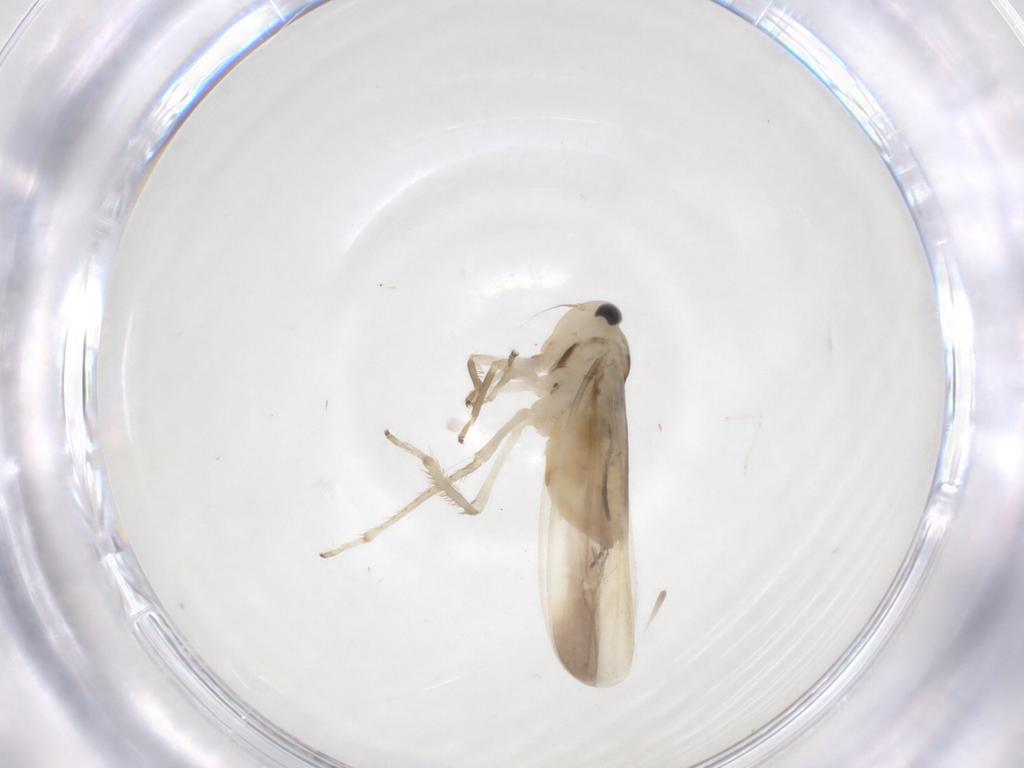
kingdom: Animalia
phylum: Arthropoda
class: Insecta
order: Hemiptera
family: Cicadellidae
